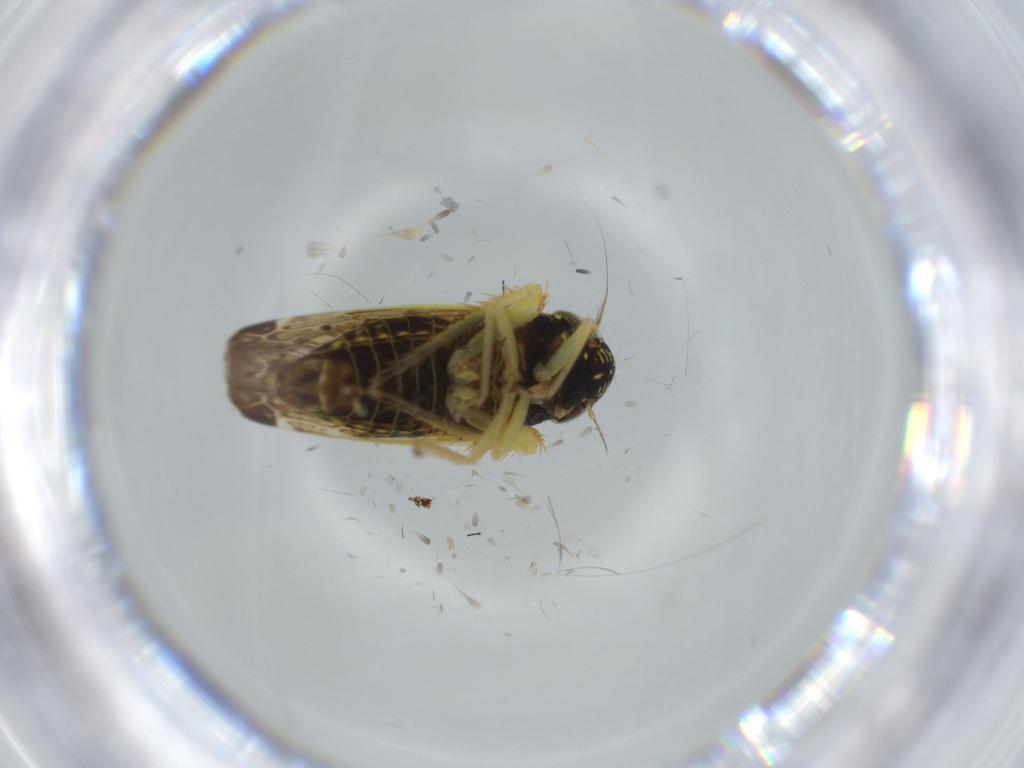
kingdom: Animalia
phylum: Arthropoda
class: Insecta
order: Hemiptera
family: Cicadellidae
